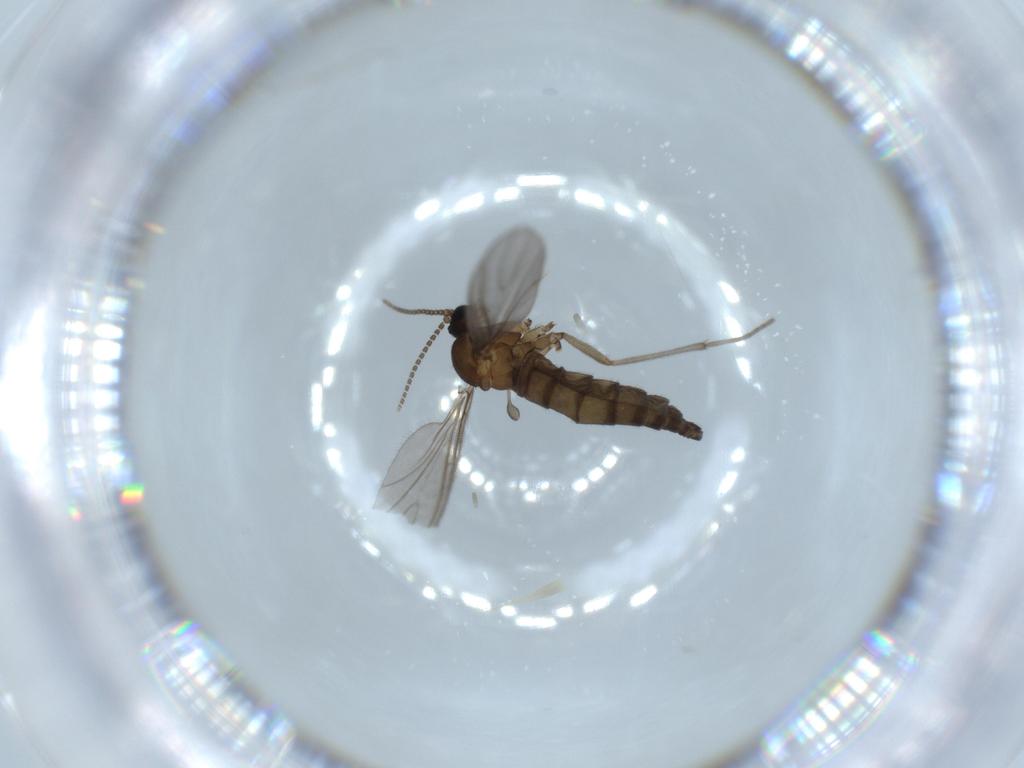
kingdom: Animalia
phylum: Arthropoda
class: Insecta
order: Diptera
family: Sciaridae
